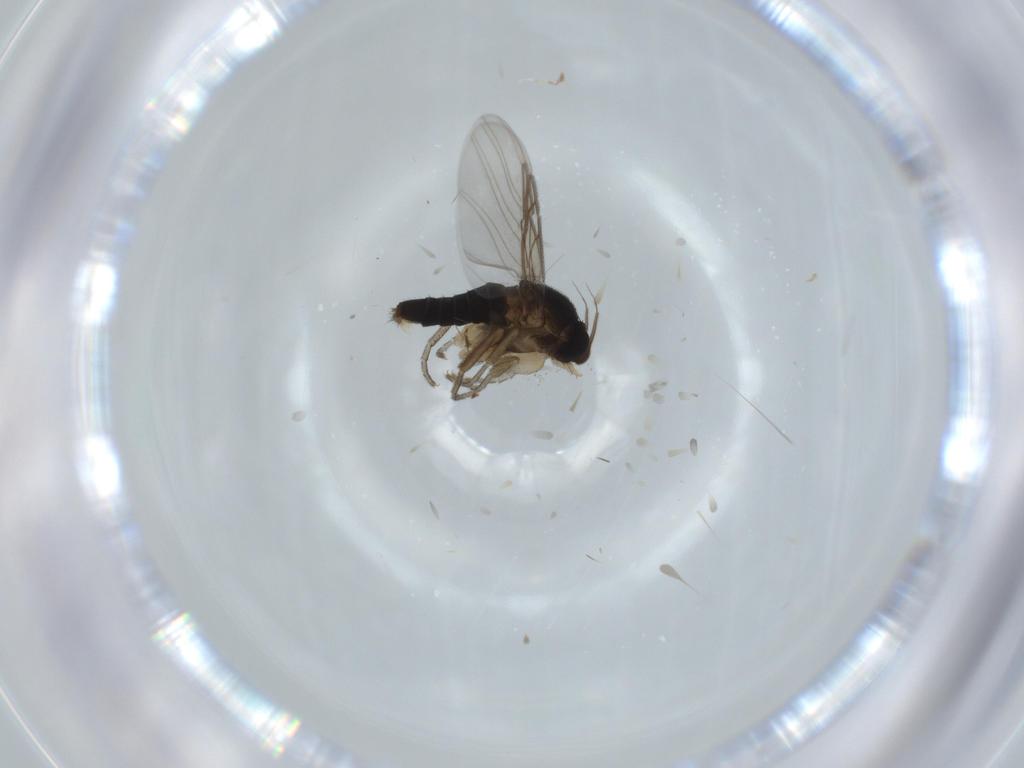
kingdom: Animalia
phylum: Arthropoda
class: Insecta
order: Diptera
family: Phoridae
